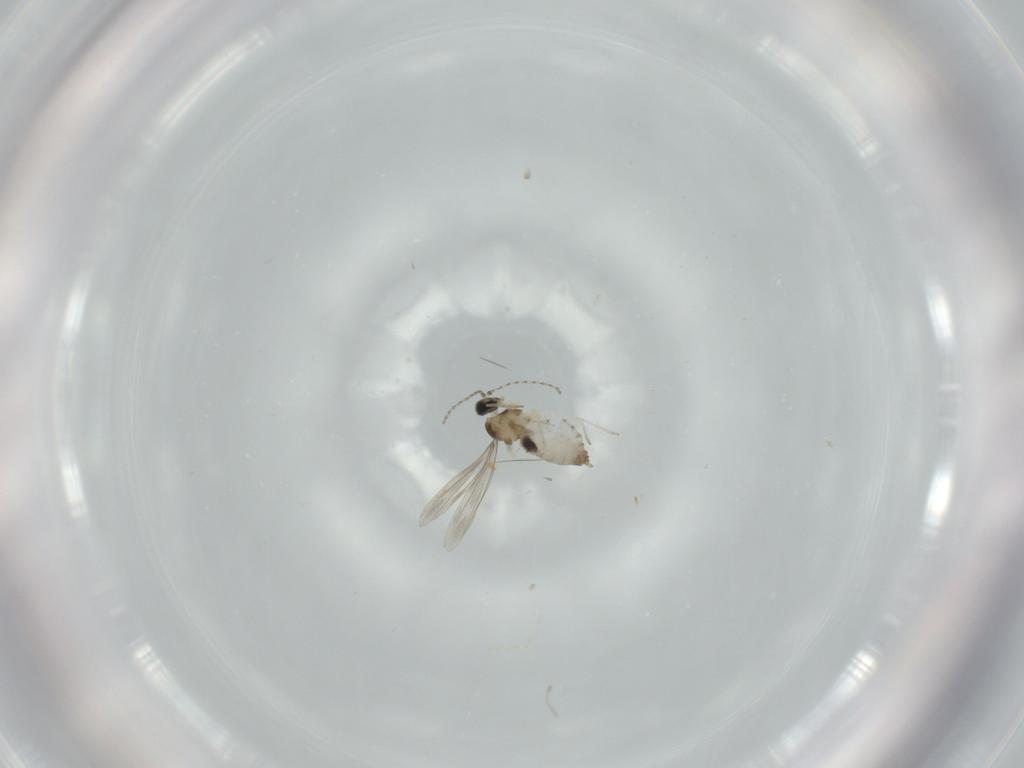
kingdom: Animalia
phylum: Arthropoda
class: Insecta
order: Diptera
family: Cecidomyiidae
